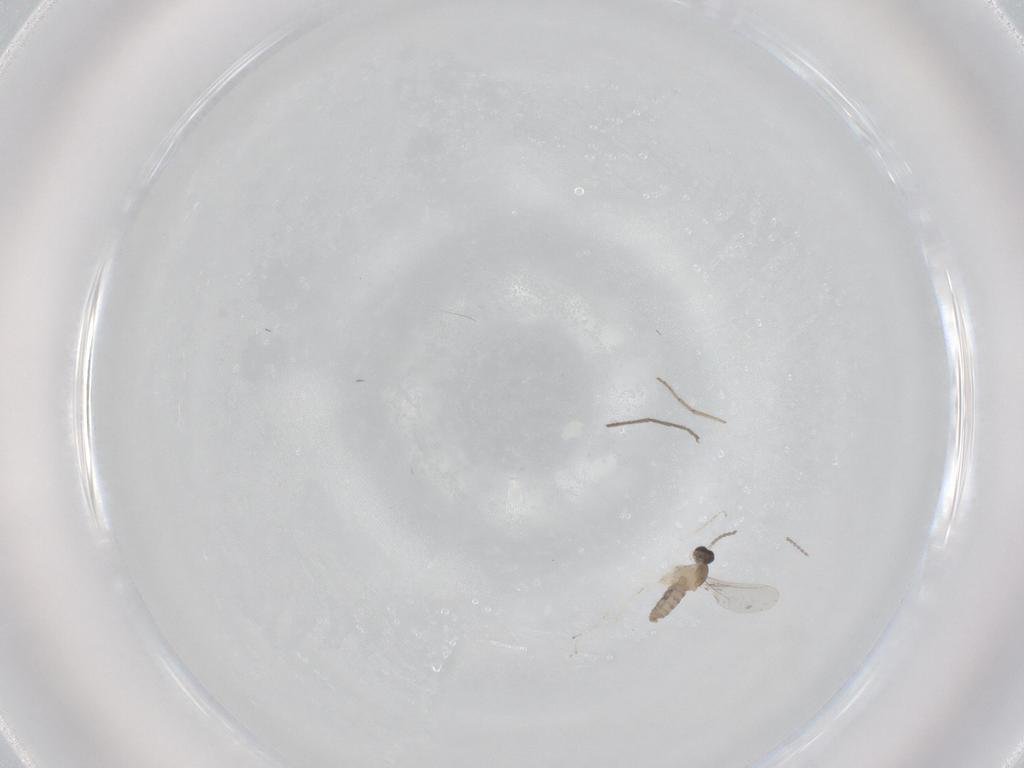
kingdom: Animalia
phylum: Arthropoda
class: Insecta
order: Diptera
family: Cecidomyiidae
